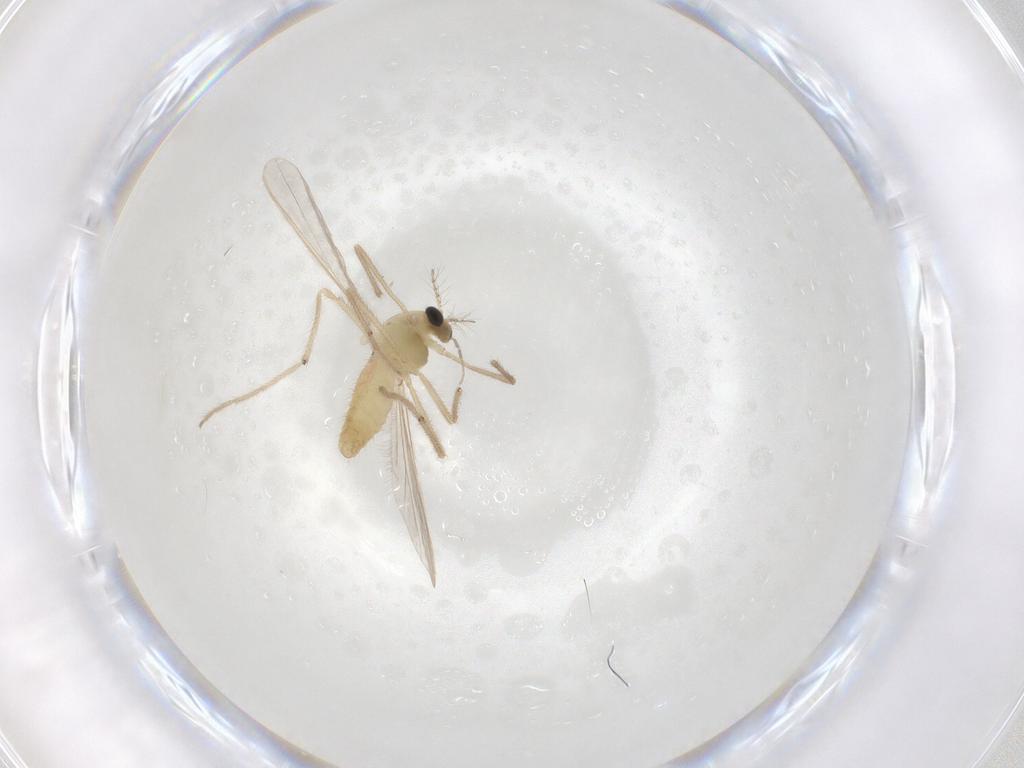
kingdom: Animalia
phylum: Arthropoda
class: Insecta
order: Diptera
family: Chironomidae
